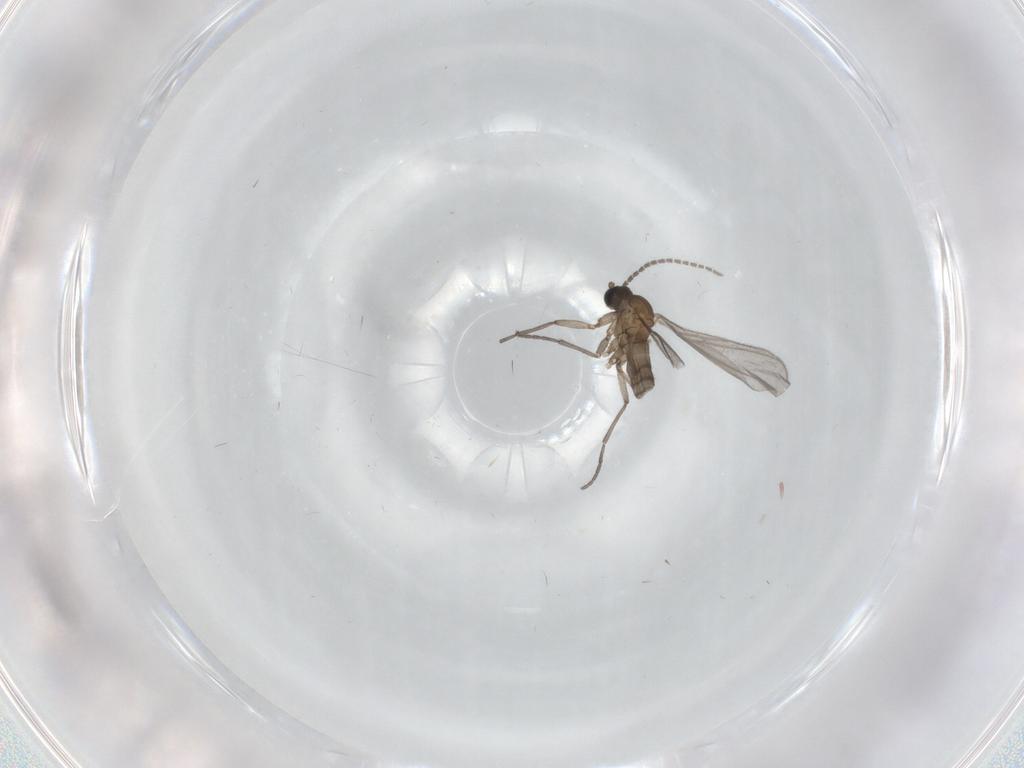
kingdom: Animalia
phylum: Arthropoda
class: Insecta
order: Diptera
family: Sciaridae
